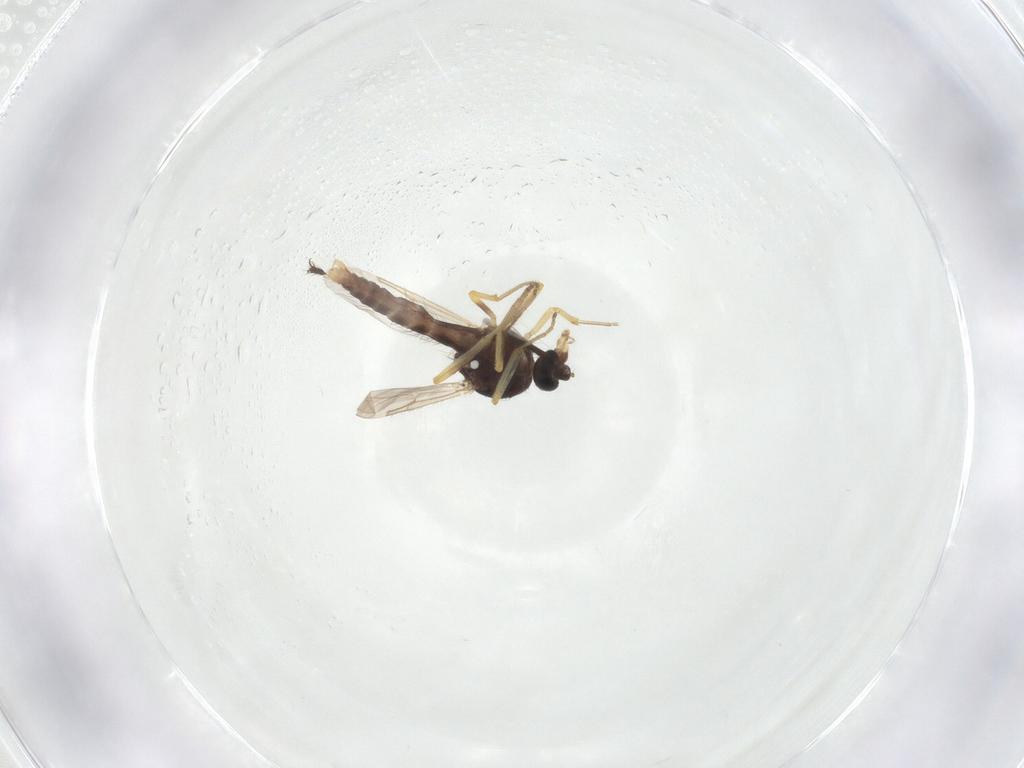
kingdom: Animalia
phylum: Arthropoda
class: Insecta
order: Diptera
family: Ceratopogonidae
